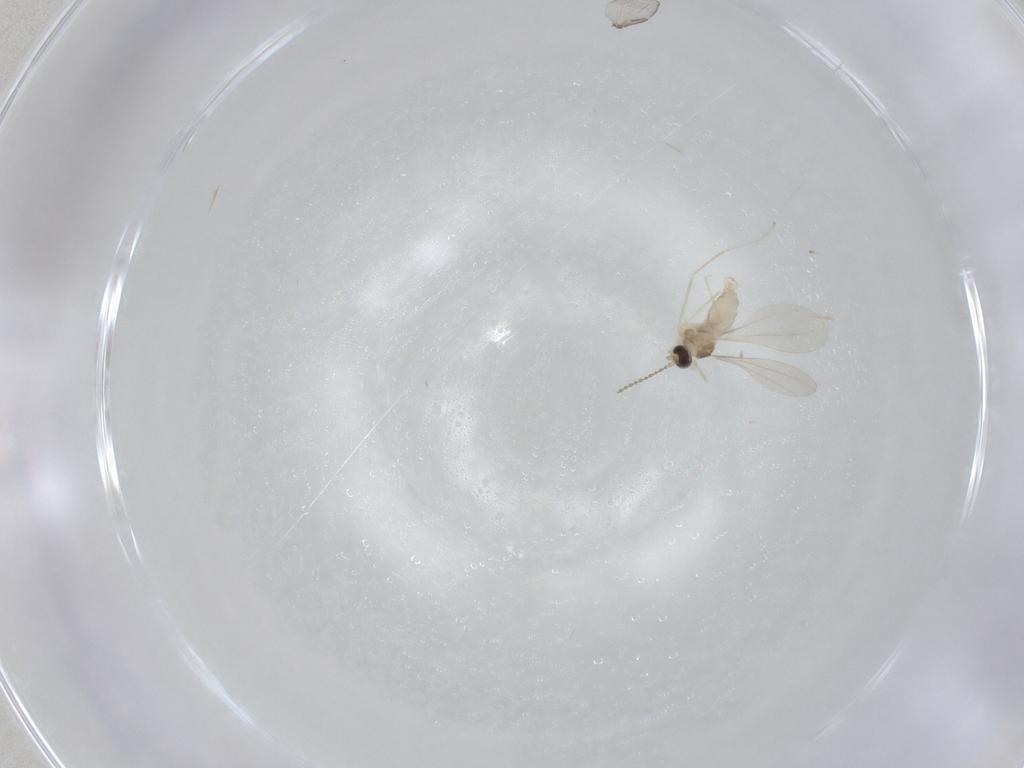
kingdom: Animalia
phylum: Arthropoda
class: Insecta
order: Diptera
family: Cecidomyiidae
